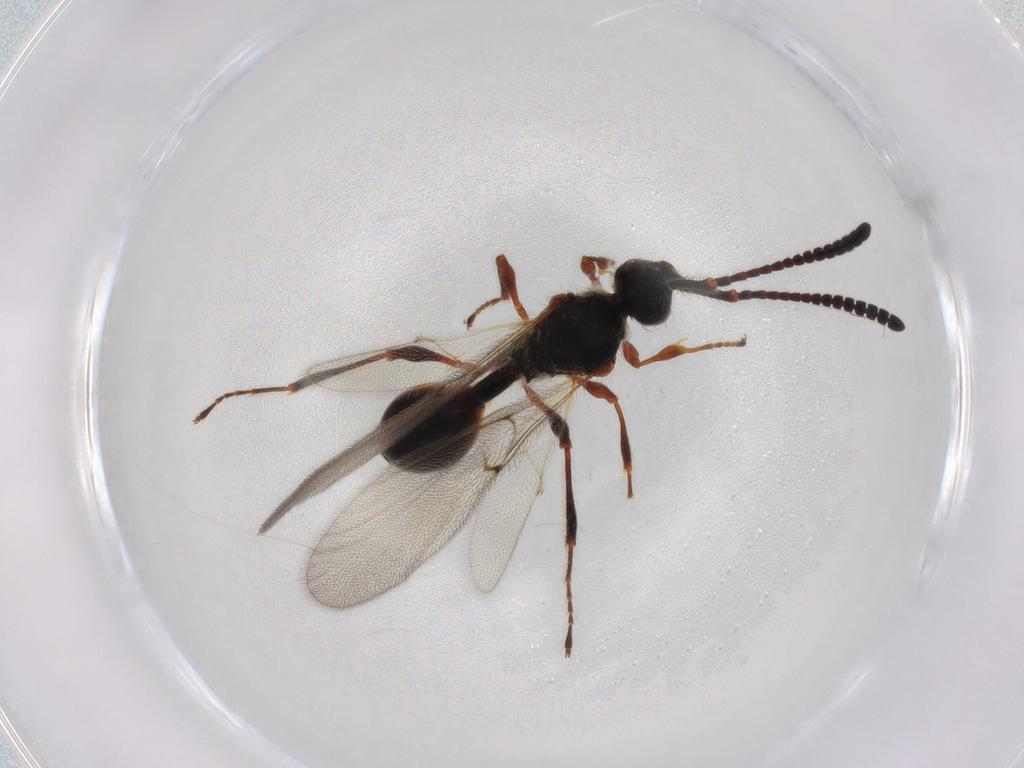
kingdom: Animalia
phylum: Arthropoda
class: Insecta
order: Hymenoptera
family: Diapriidae
